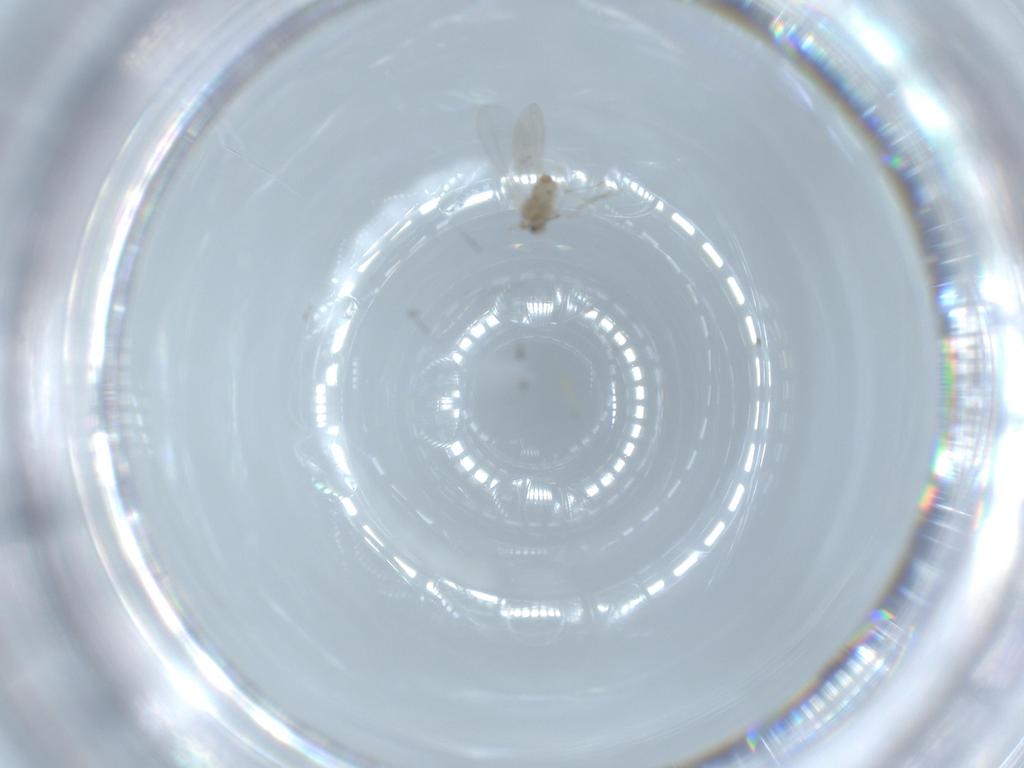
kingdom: Animalia
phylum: Arthropoda
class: Insecta
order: Diptera
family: Cecidomyiidae
